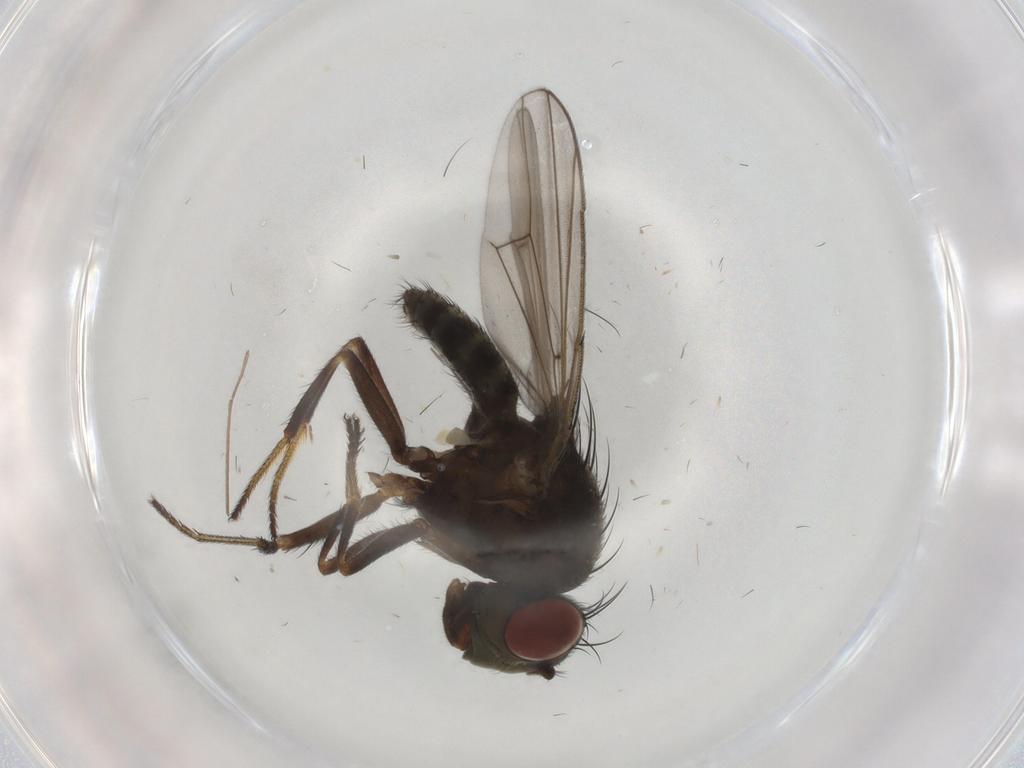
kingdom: Animalia
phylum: Arthropoda
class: Insecta
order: Diptera
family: Ephydridae
